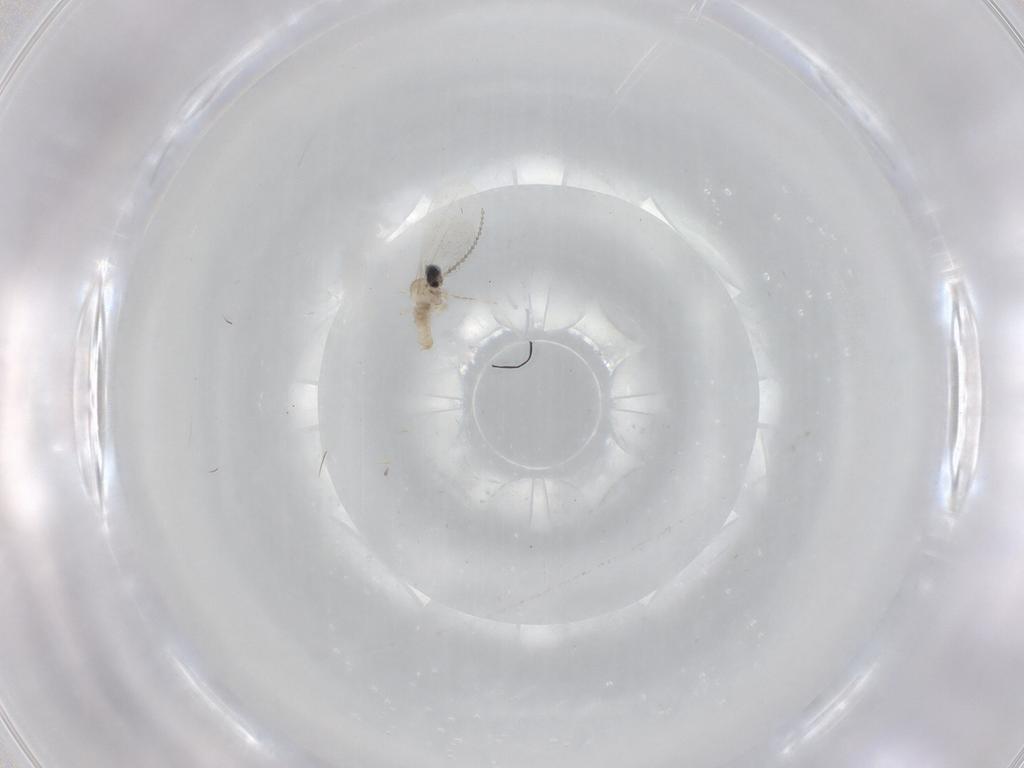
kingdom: Animalia
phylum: Arthropoda
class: Insecta
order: Diptera
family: Cecidomyiidae
